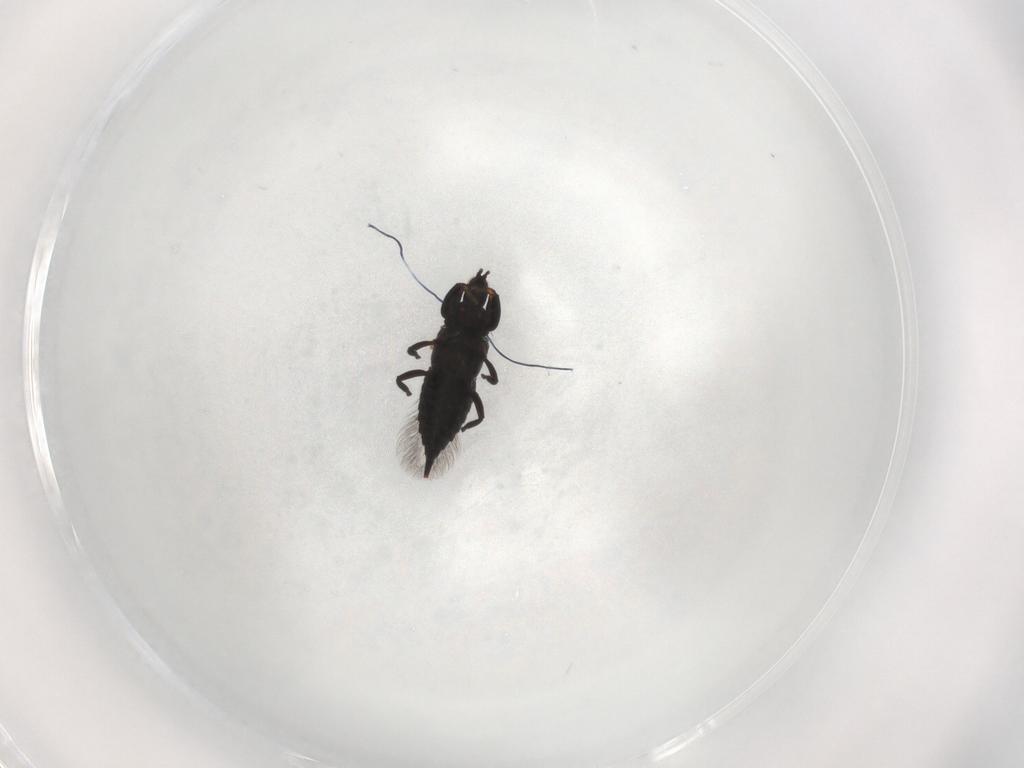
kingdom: Animalia
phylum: Arthropoda
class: Insecta
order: Thysanoptera
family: Phlaeothripidae
